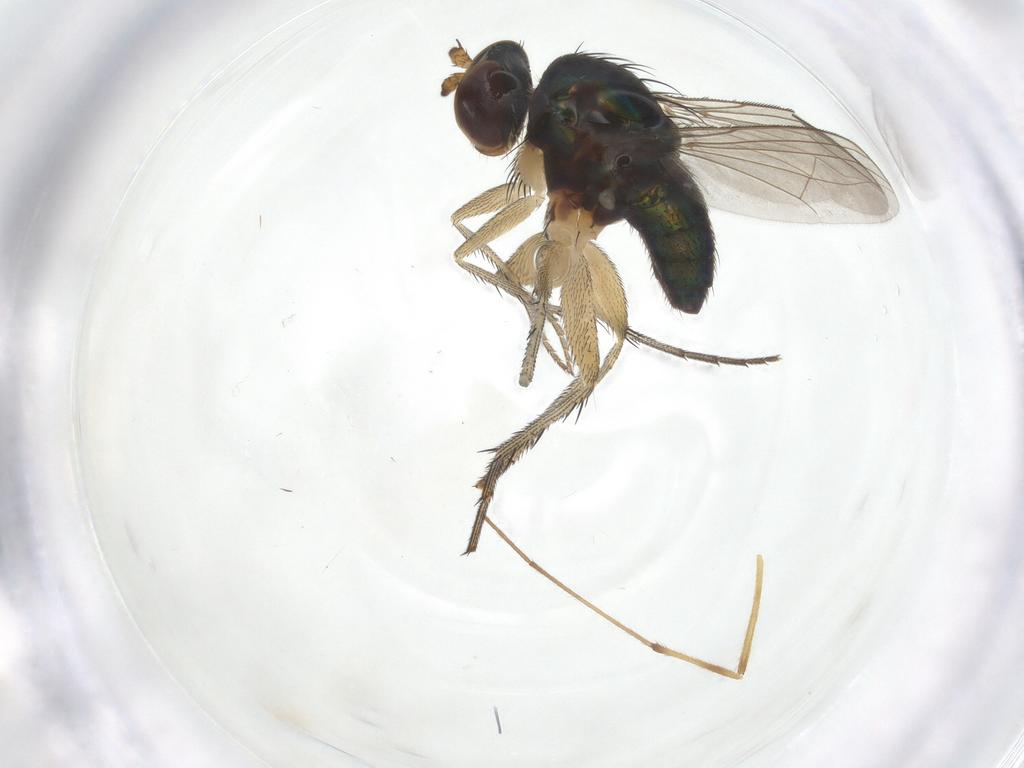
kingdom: Animalia
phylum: Arthropoda
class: Insecta
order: Diptera
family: Dolichopodidae
